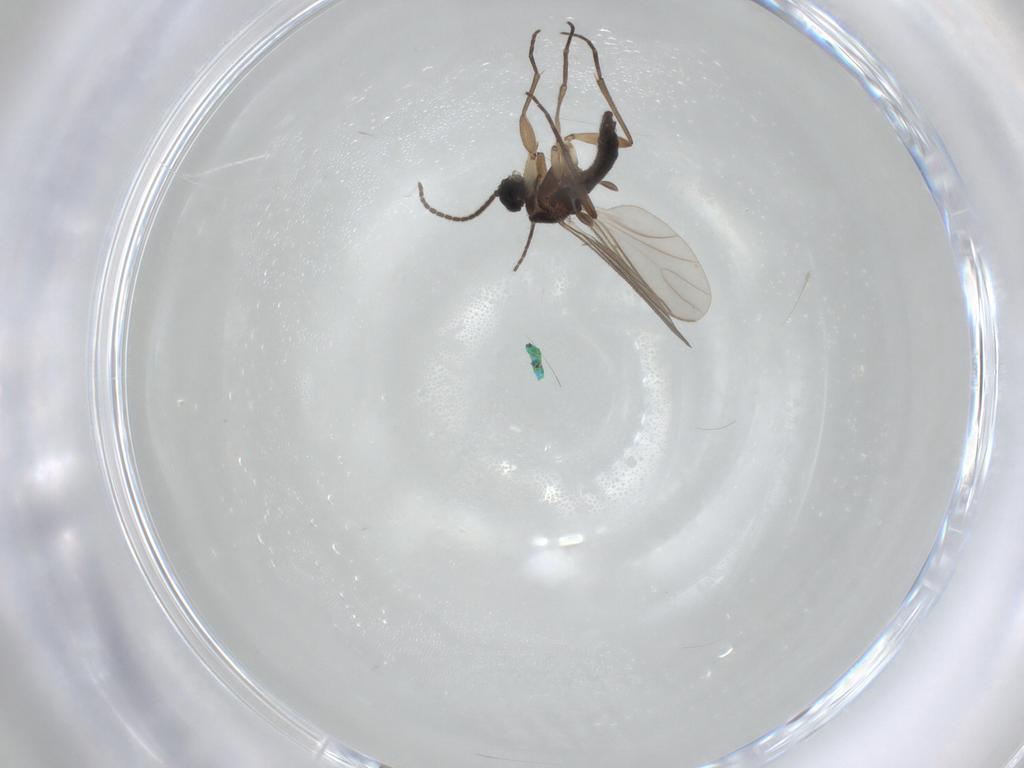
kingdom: Animalia
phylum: Arthropoda
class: Insecta
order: Diptera
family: Sciaridae
